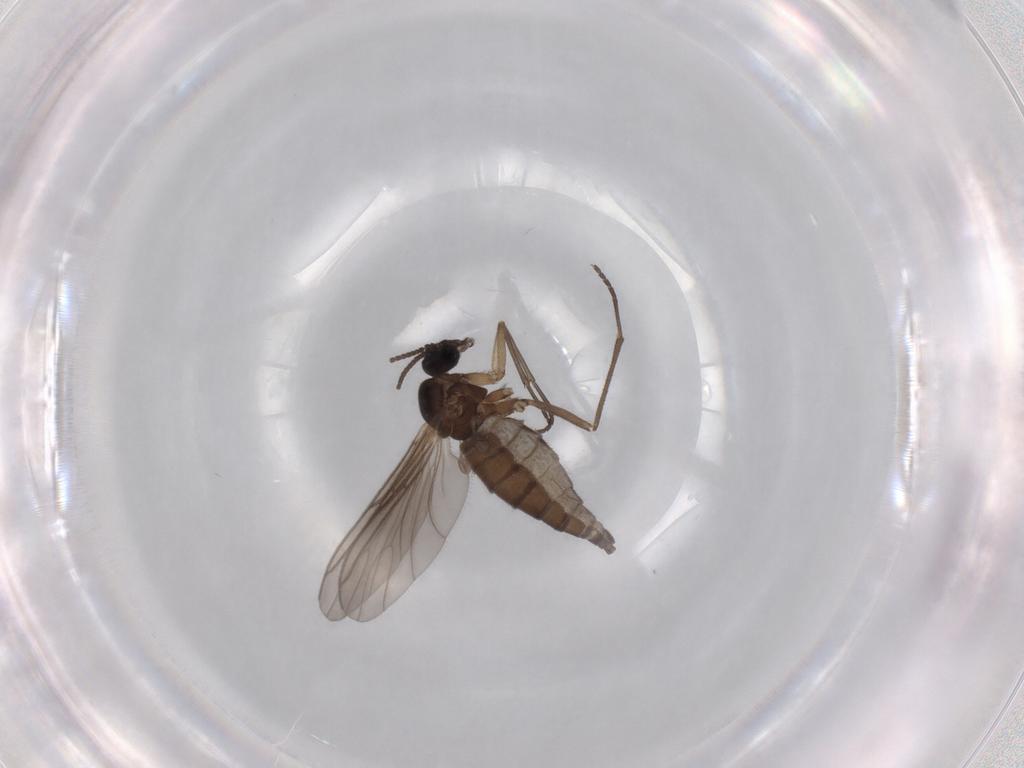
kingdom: Animalia
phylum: Arthropoda
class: Insecta
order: Diptera
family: Sciaridae
